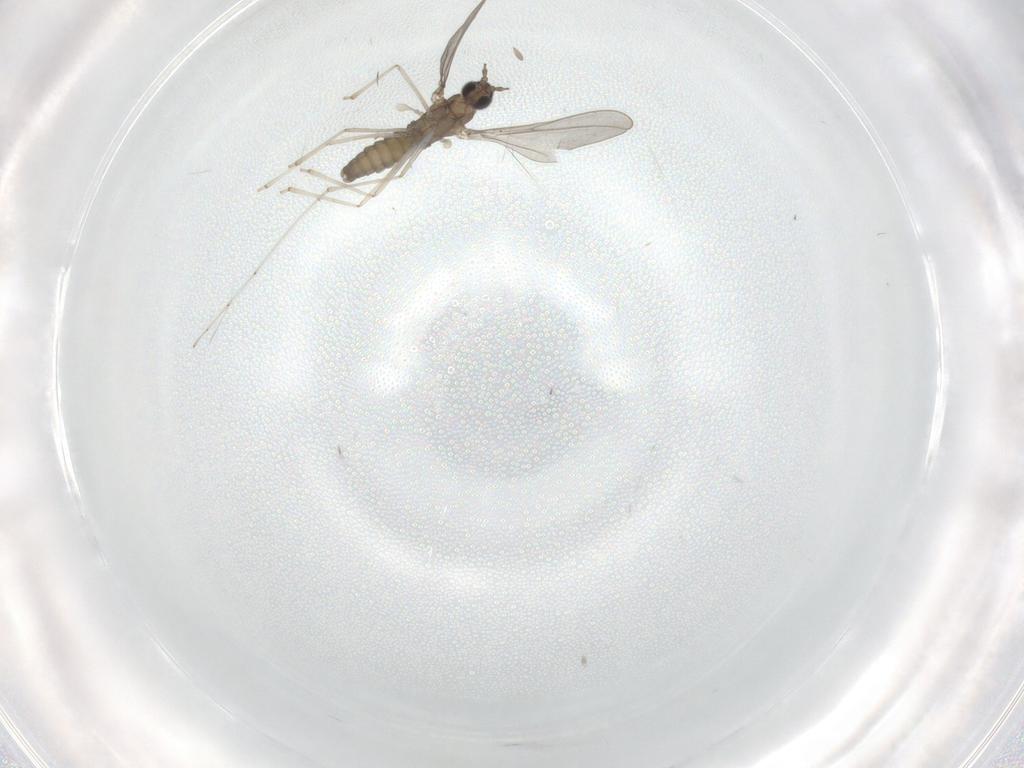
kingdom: Animalia
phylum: Arthropoda
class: Insecta
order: Diptera
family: Cecidomyiidae
